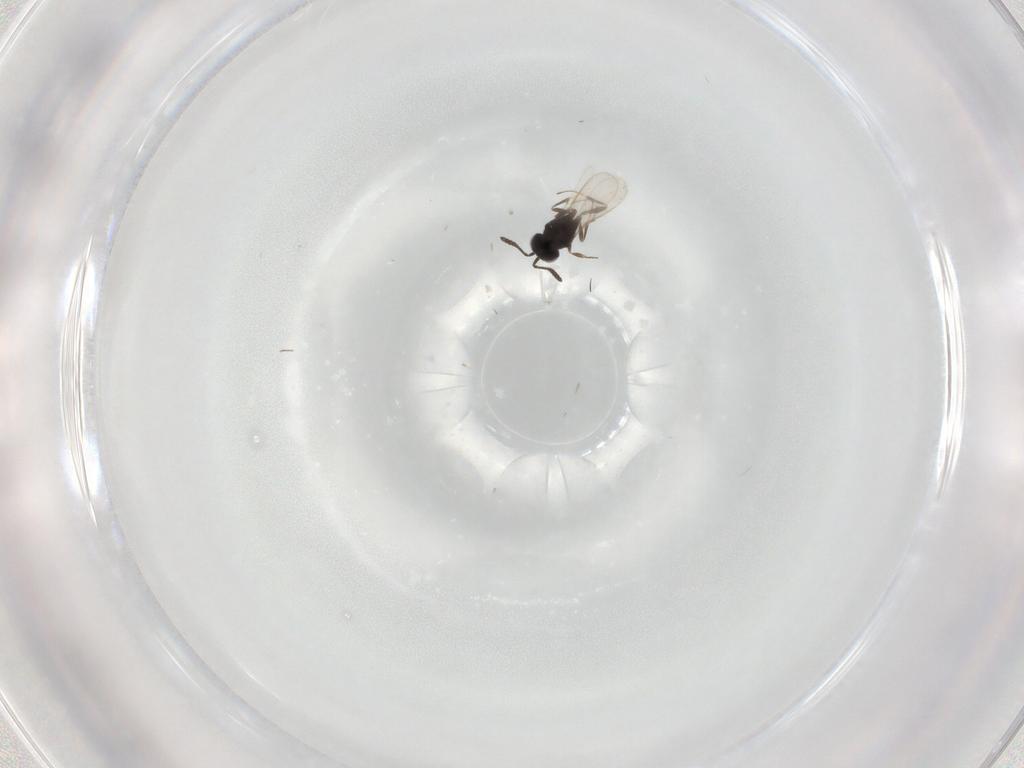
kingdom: Animalia
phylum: Arthropoda
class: Insecta
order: Hymenoptera
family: Scelionidae
